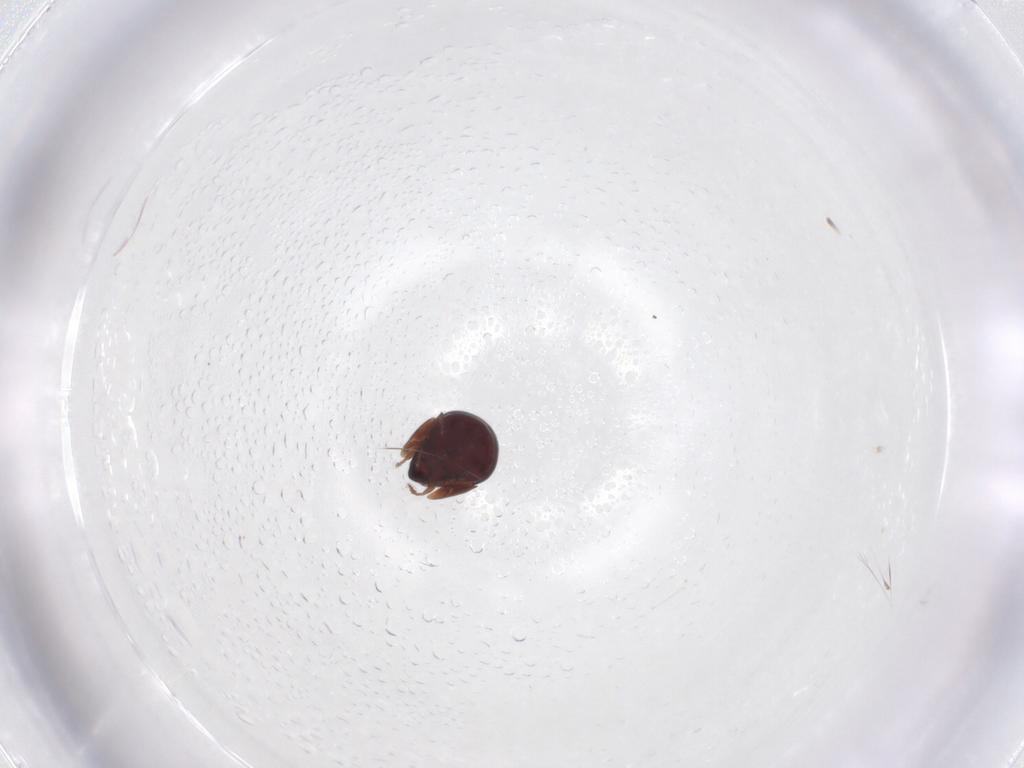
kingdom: Animalia
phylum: Arthropoda
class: Arachnida
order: Sarcoptiformes
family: Galumnidae
